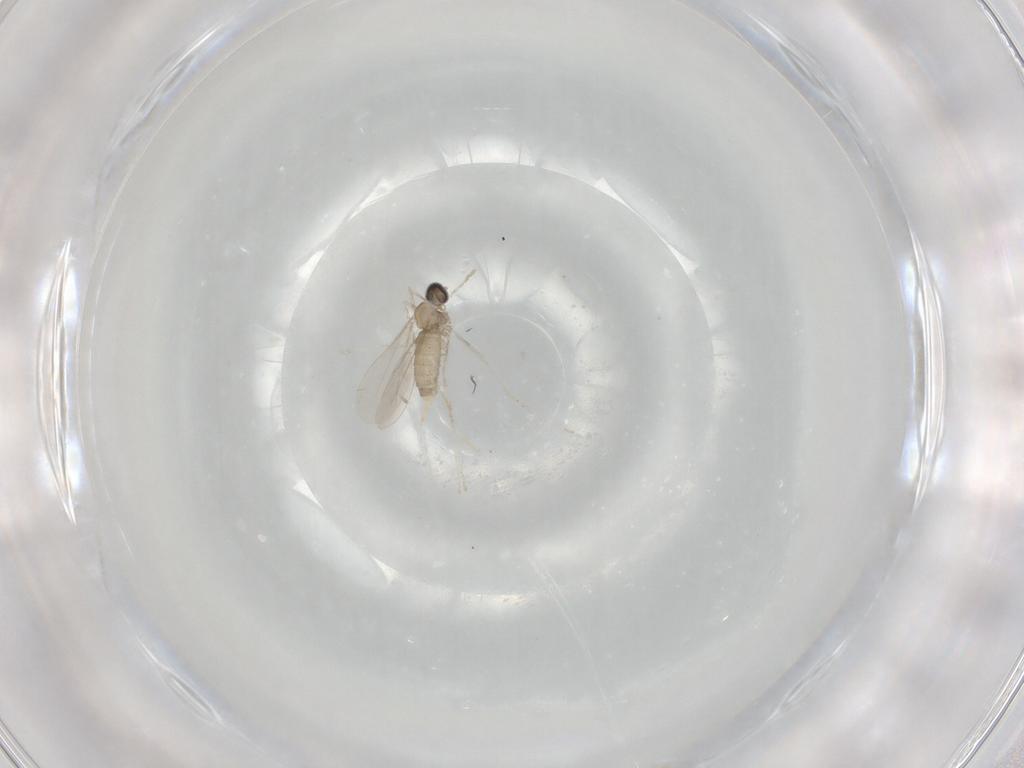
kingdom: Animalia
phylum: Arthropoda
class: Insecta
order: Diptera
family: Cecidomyiidae
